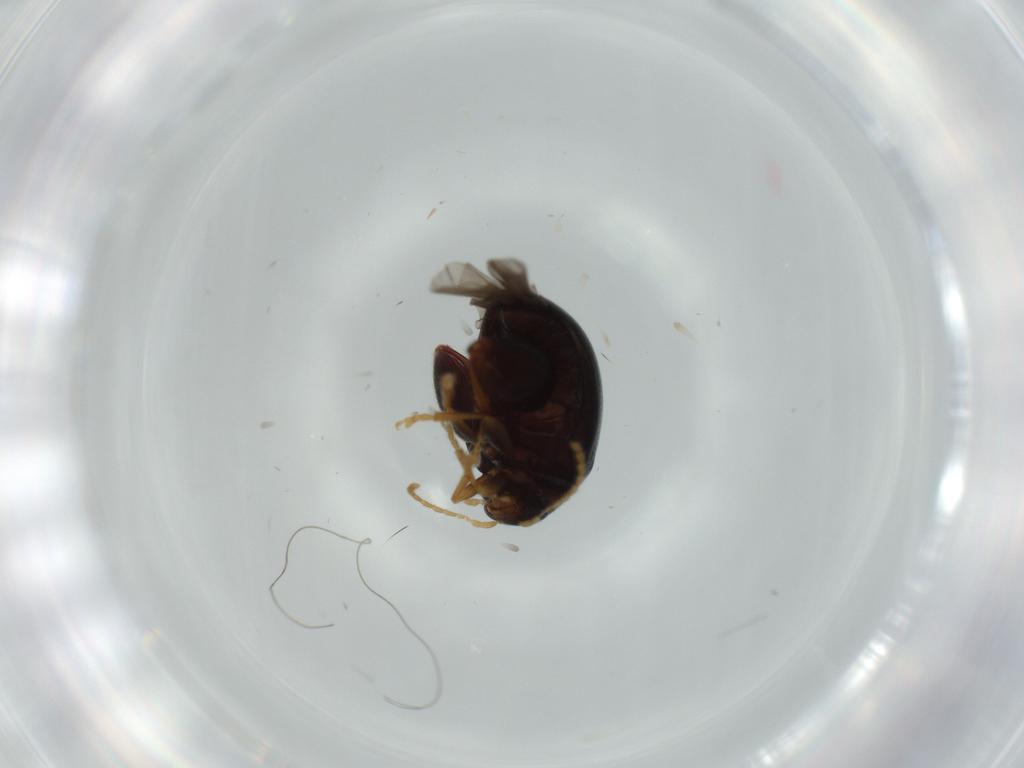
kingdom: Animalia
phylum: Arthropoda
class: Insecta
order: Coleoptera
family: Chrysomelidae
